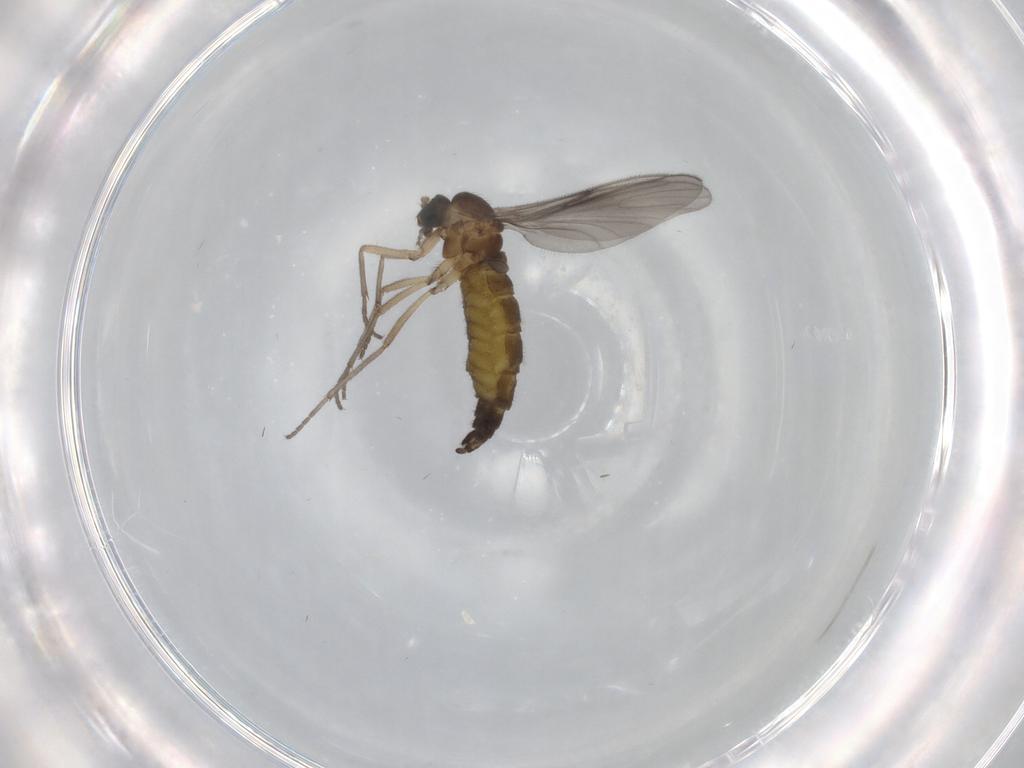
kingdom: Animalia
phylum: Arthropoda
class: Insecta
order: Diptera
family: Sciaridae
